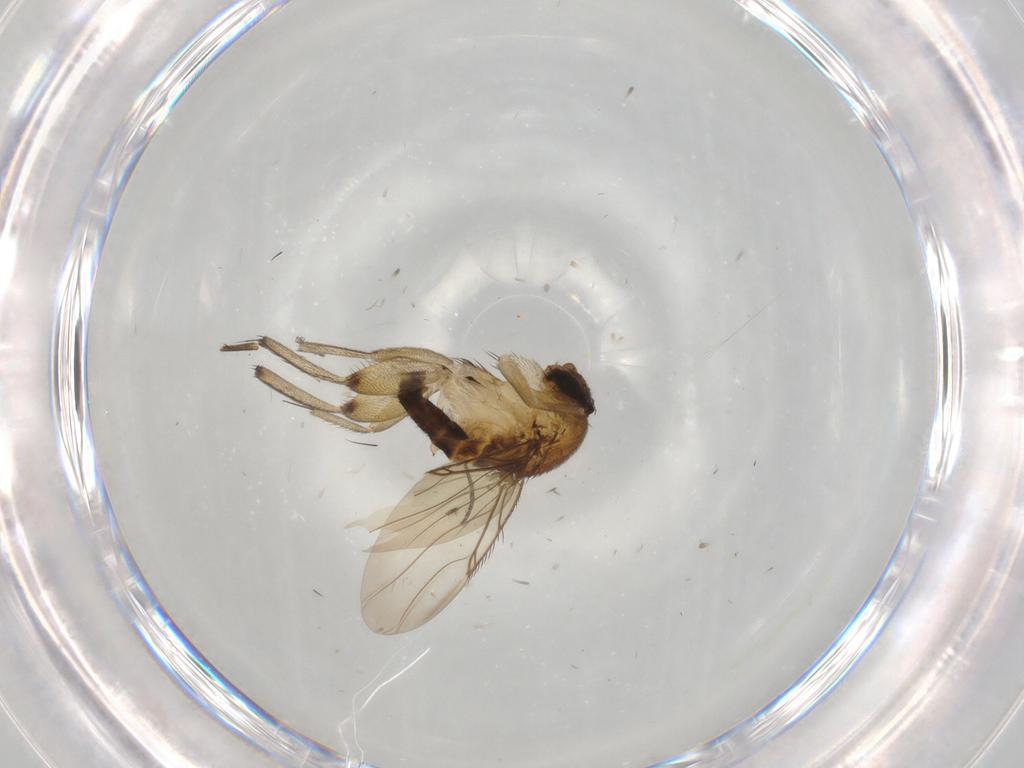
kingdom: Animalia
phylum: Arthropoda
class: Insecta
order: Diptera
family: Phoridae
